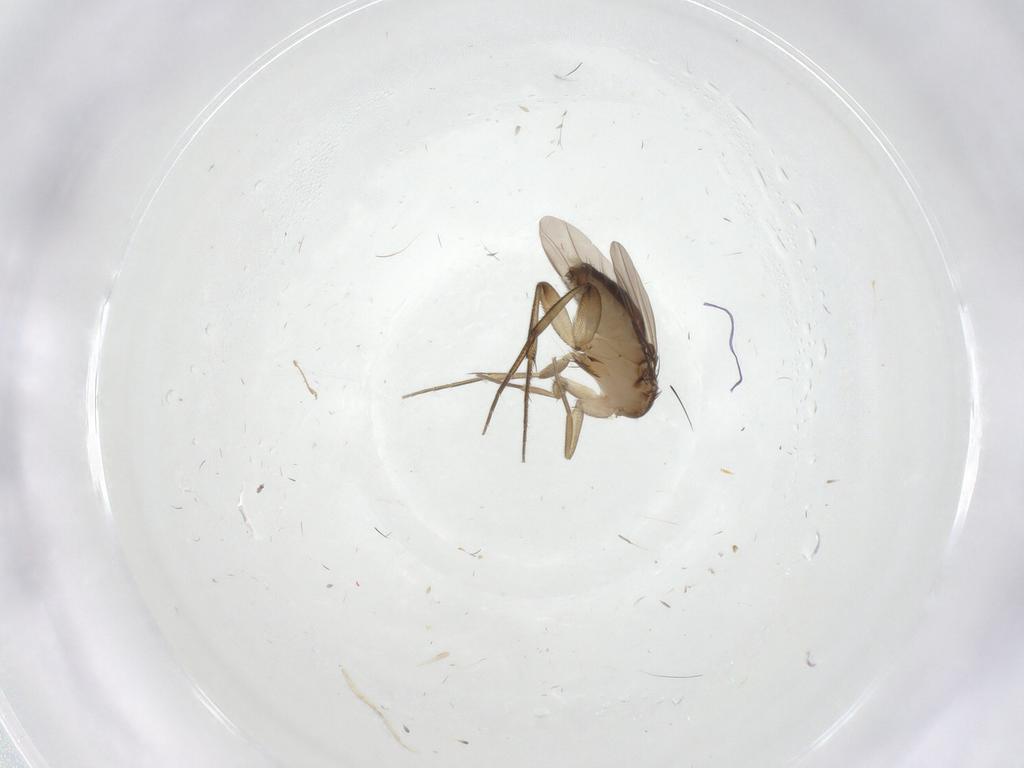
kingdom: Animalia
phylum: Arthropoda
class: Insecta
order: Diptera
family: Phoridae
